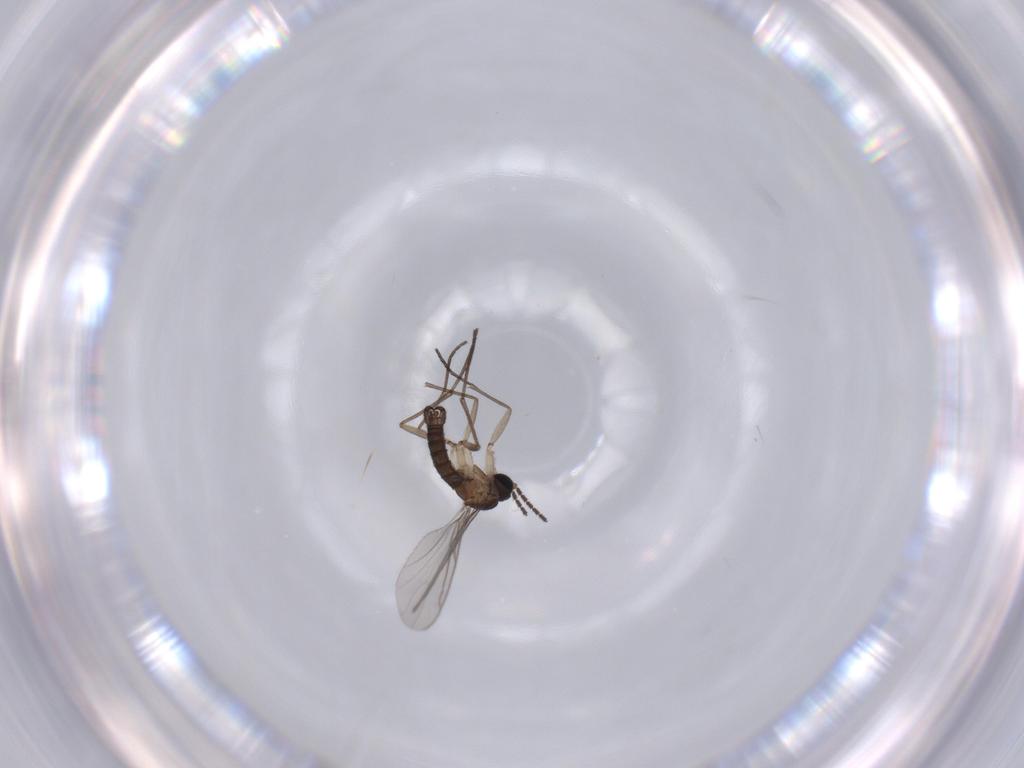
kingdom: Animalia
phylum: Arthropoda
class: Insecta
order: Diptera
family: Sciaridae
